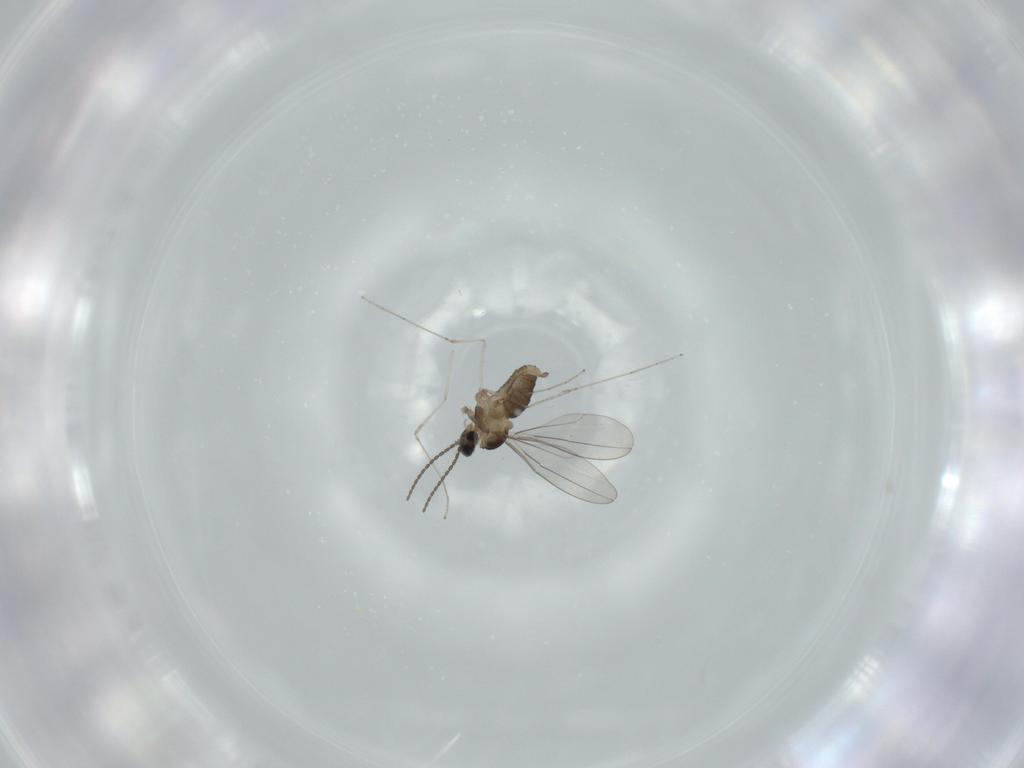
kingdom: Animalia
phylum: Arthropoda
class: Insecta
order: Diptera
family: Cecidomyiidae
